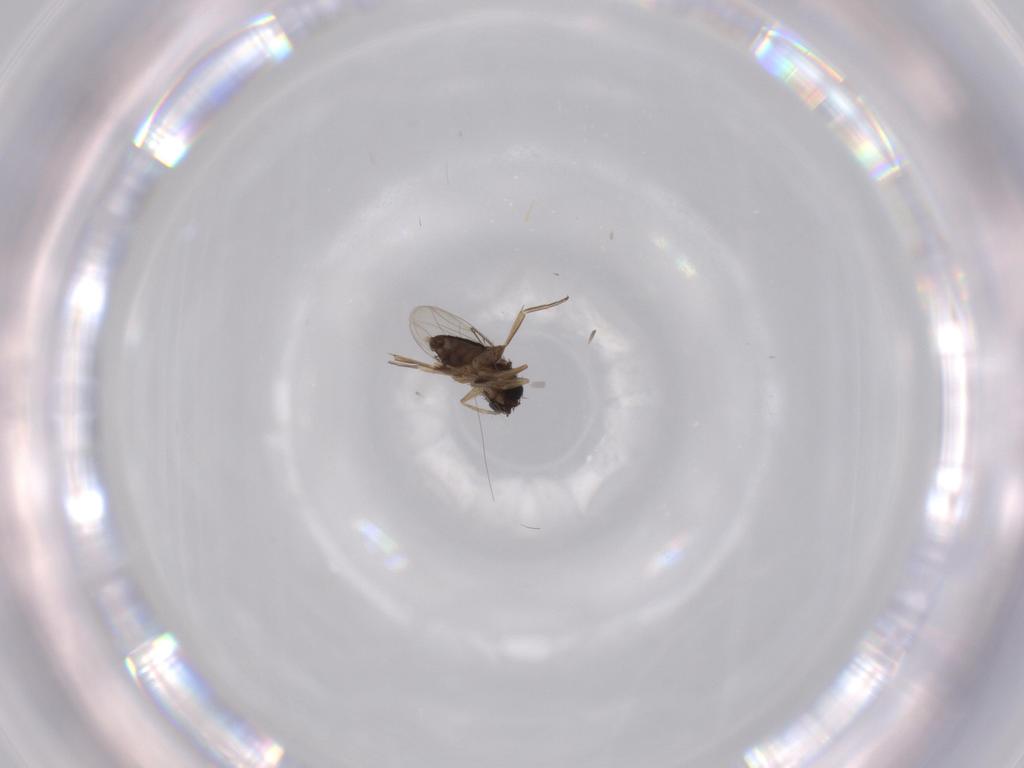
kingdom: Animalia
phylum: Arthropoda
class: Insecta
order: Diptera
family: Phoridae
